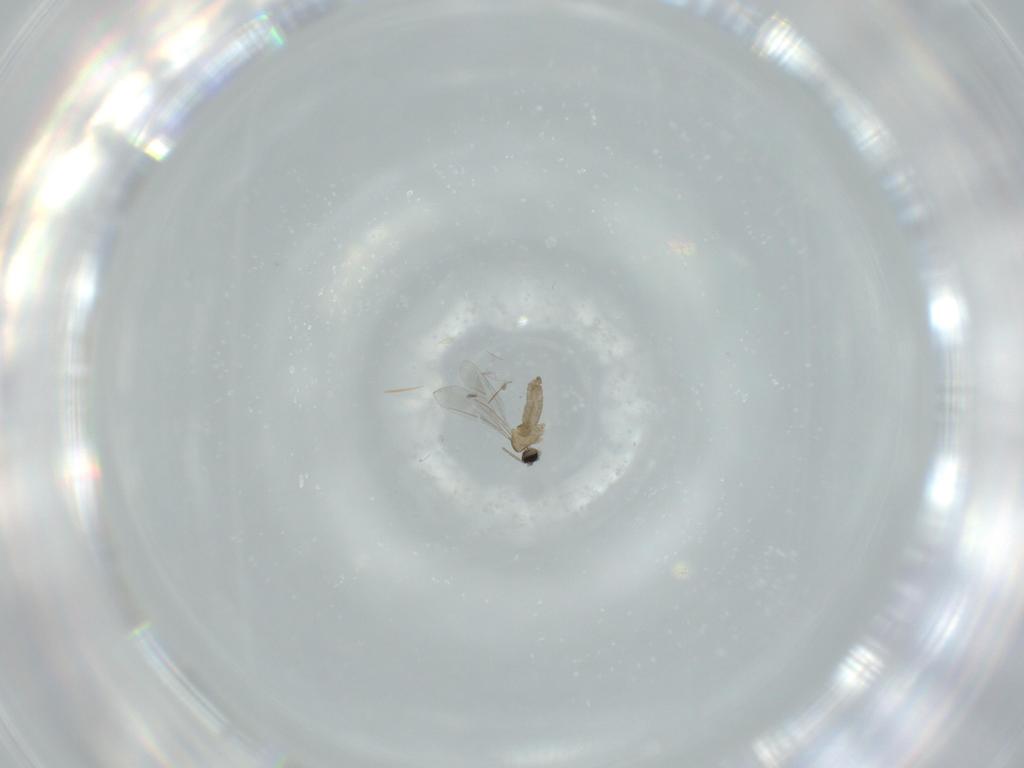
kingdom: Animalia
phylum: Arthropoda
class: Insecta
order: Diptera
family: Cecidomyiidae
